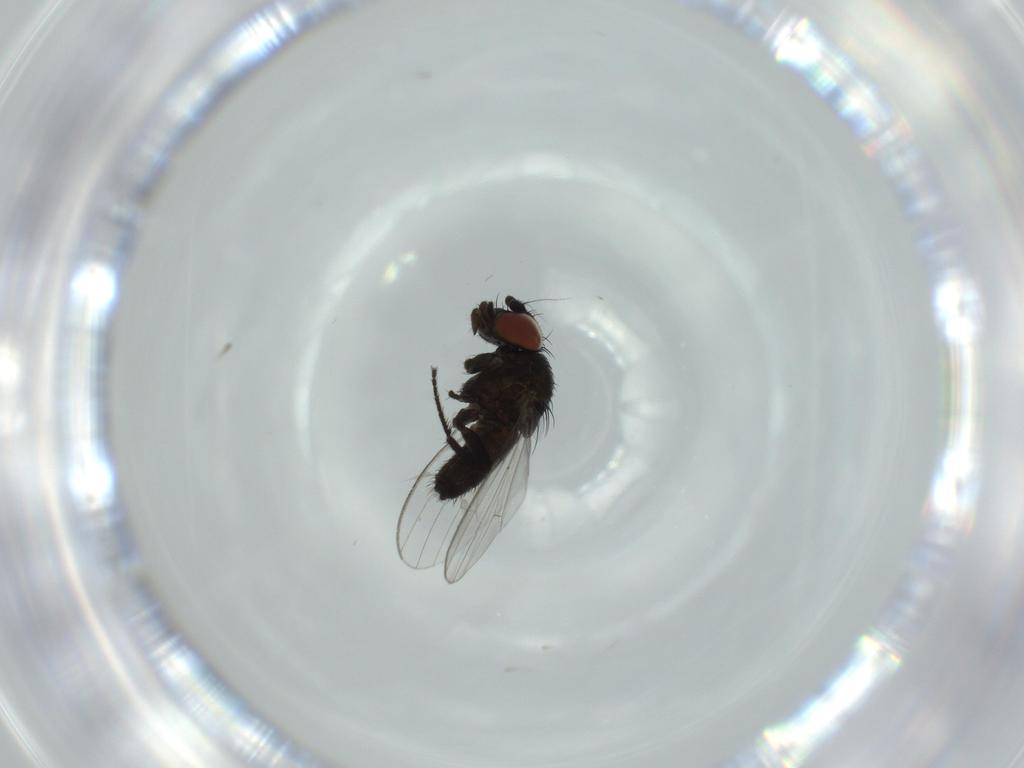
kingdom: Animalia
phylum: Arthropoda
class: Insecta
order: Diptera
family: Milichiidae
